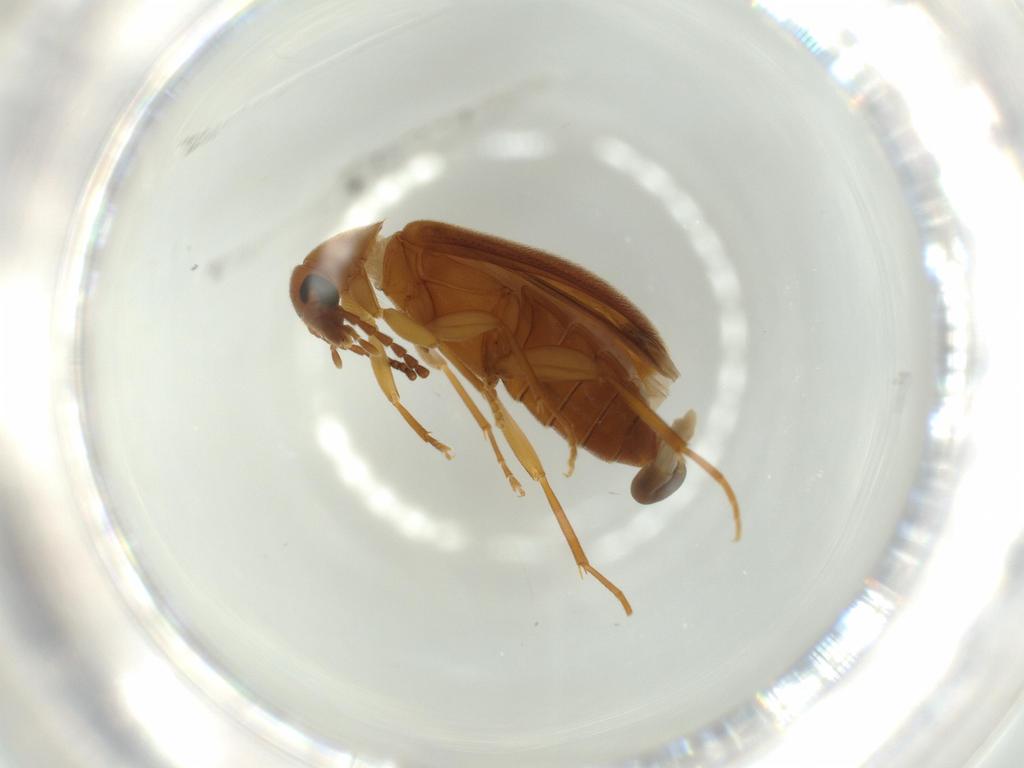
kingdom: Animalia
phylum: Arthropoda
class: Insecta
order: Coleoptera
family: Scraptiidae
